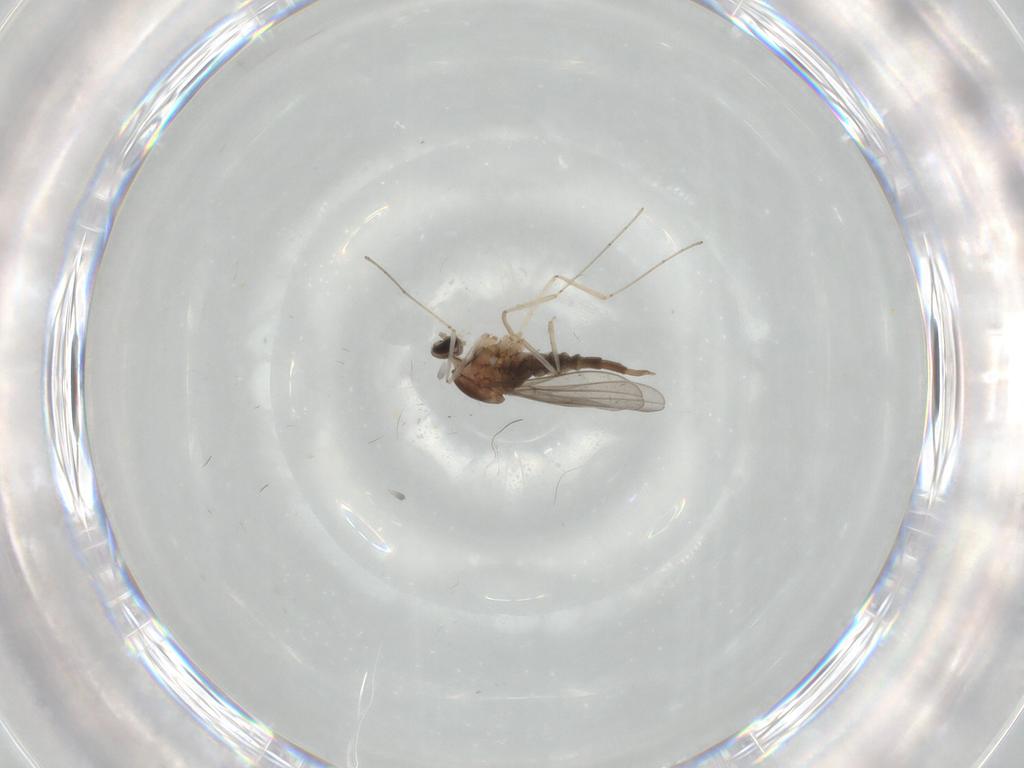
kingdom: Animalia
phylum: Arthropoda
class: Insecta
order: Diptera
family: Cecidomyiidae
